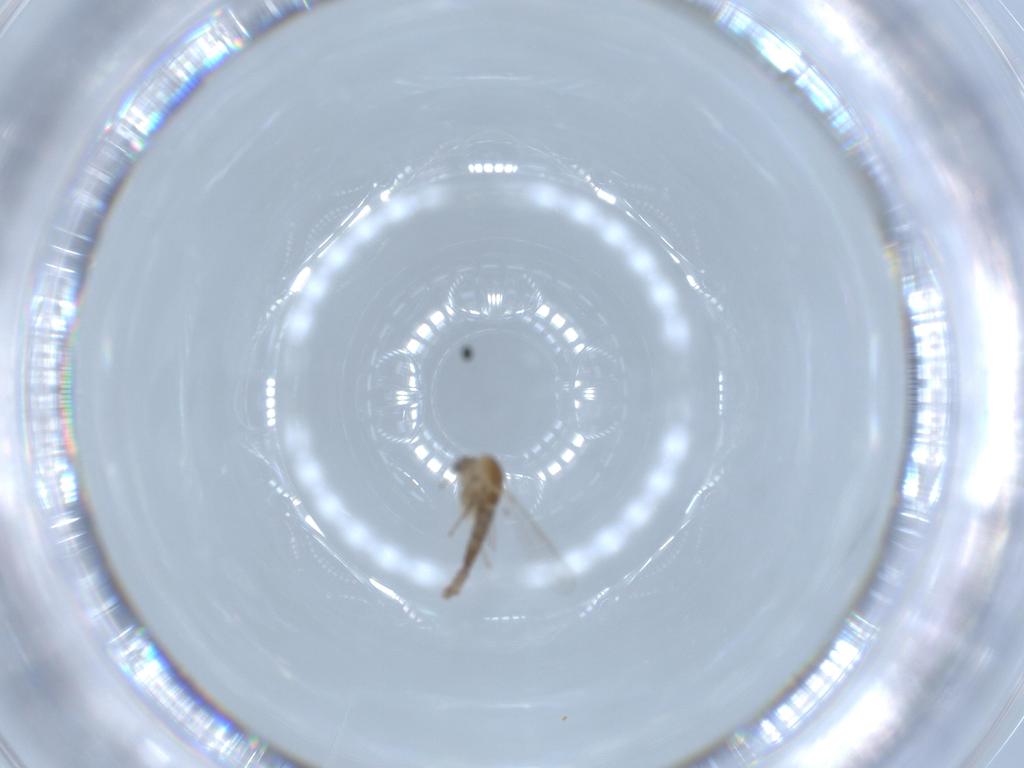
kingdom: Animalia
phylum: Arthropoda
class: Insecta
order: Diptera
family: Chironomidae
